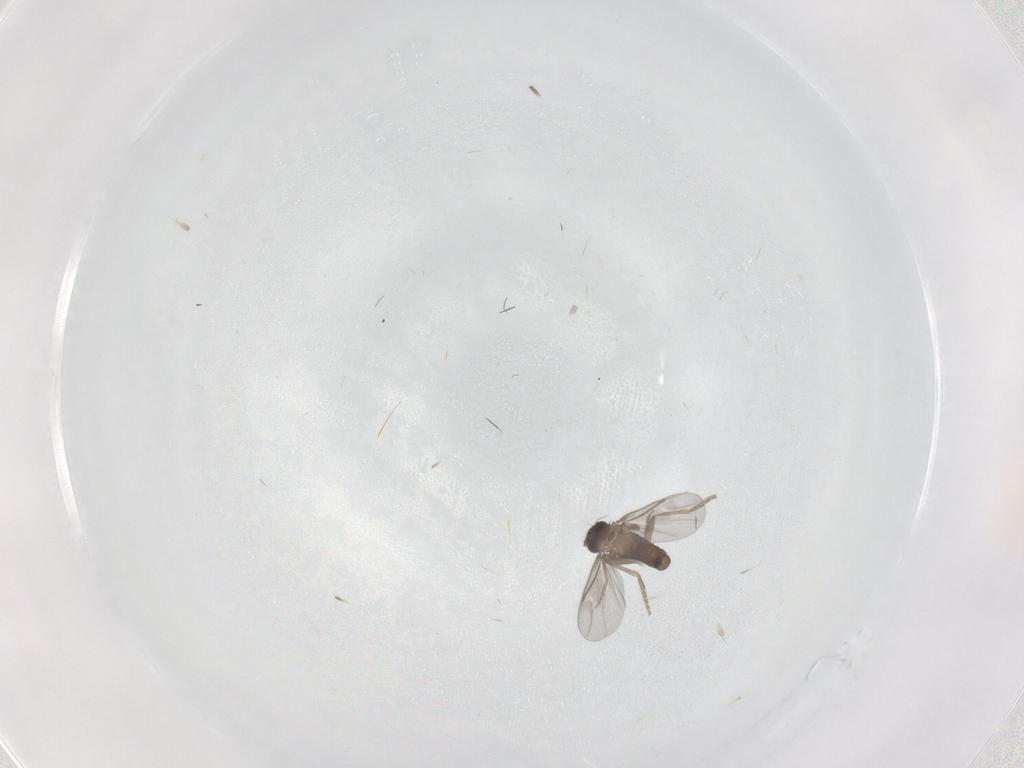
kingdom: Animalia
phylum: Arthropoda
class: Insecta
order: Diptera
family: Phoridae
